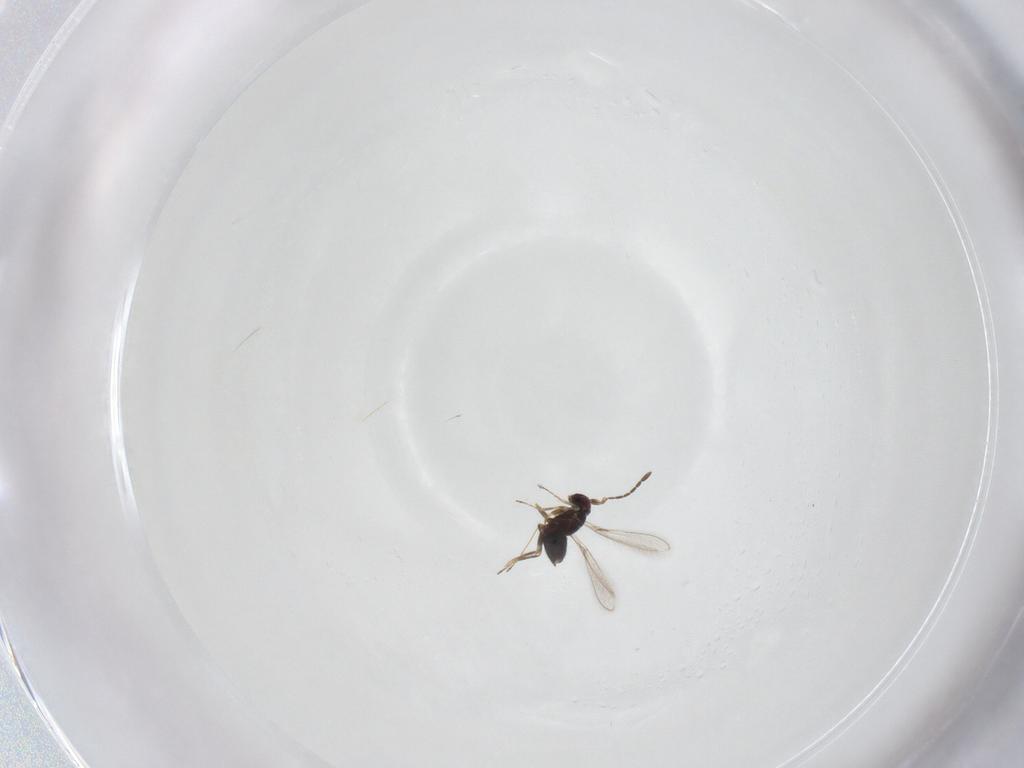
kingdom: Animalia
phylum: Arthropoda
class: Insecta
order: Hymenoptera
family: Mymaridae
